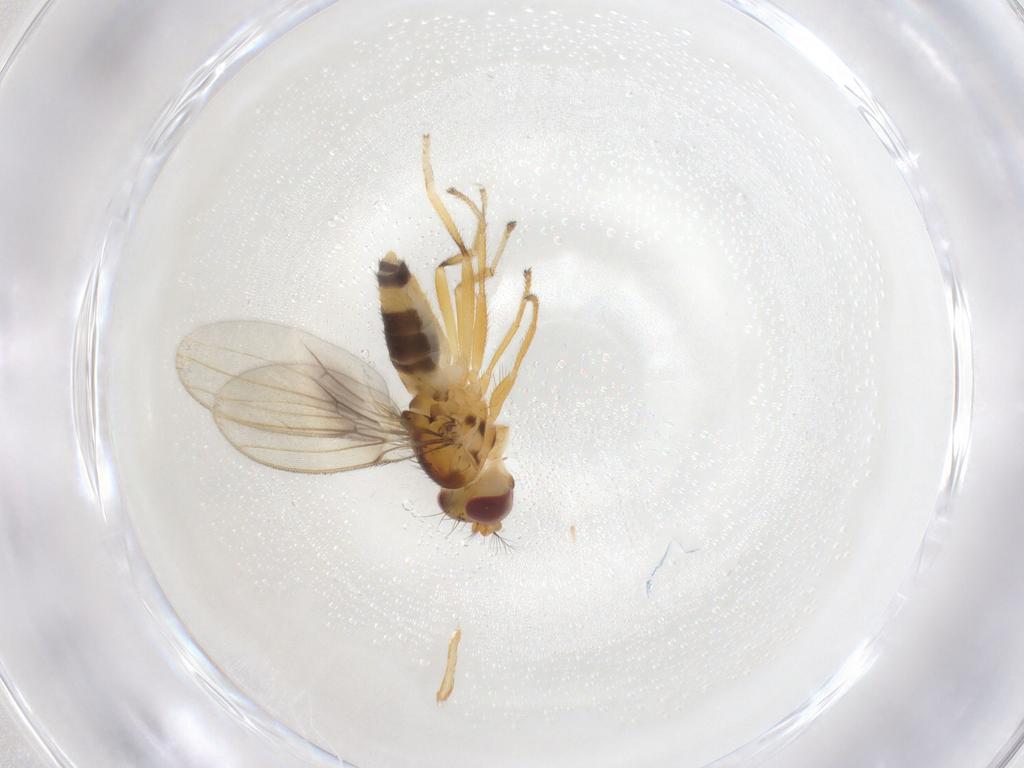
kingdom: Animalia
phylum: Arthropoda
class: Insecta
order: Diptera
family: Periscelididae
